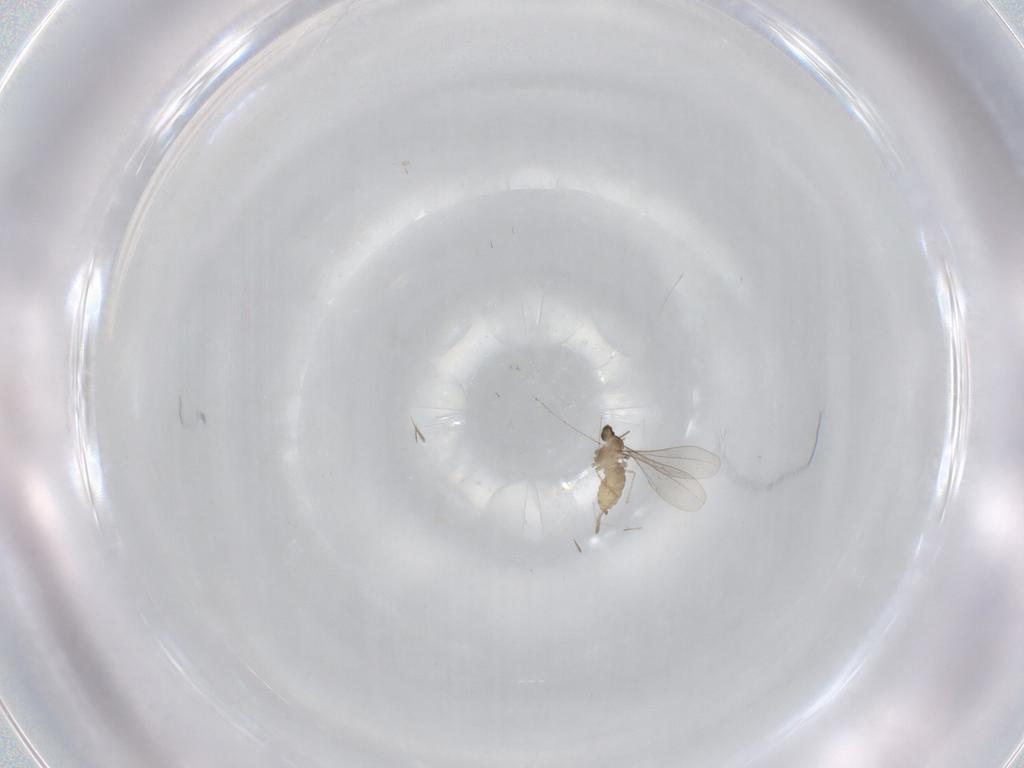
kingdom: Animalia
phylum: Arthropoda
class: Insecta
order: Diptera
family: Cecidomyiidae
